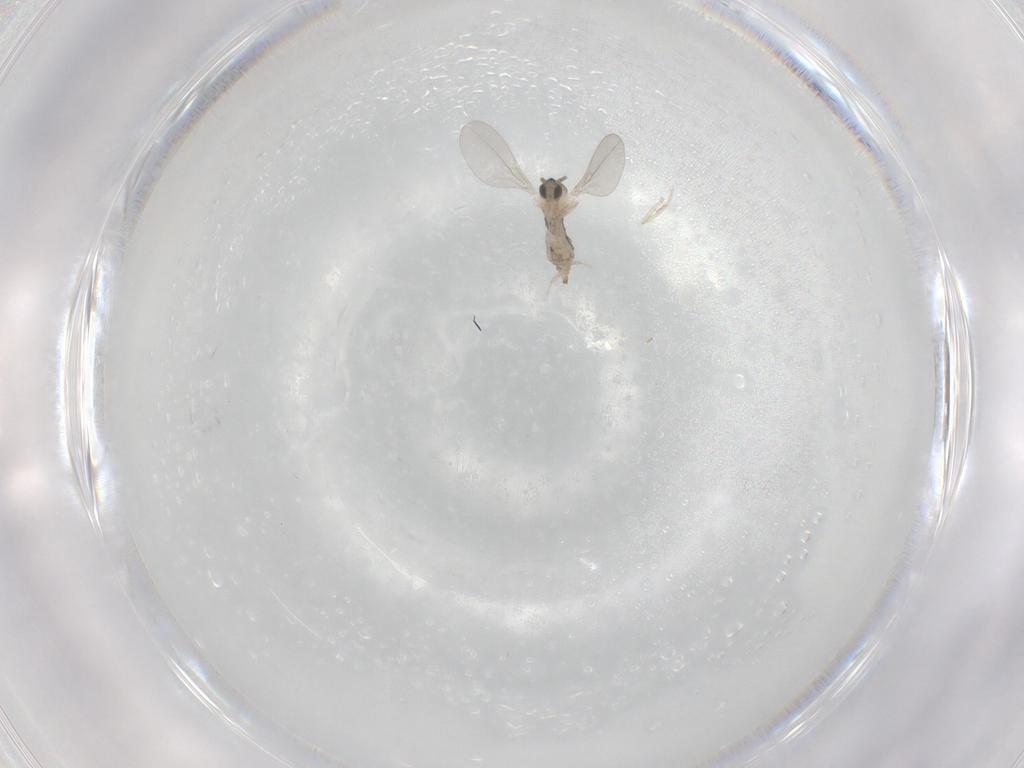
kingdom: Animalia
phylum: Arthropoda
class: Insecta
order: Diptera
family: Cecidomyiidae
